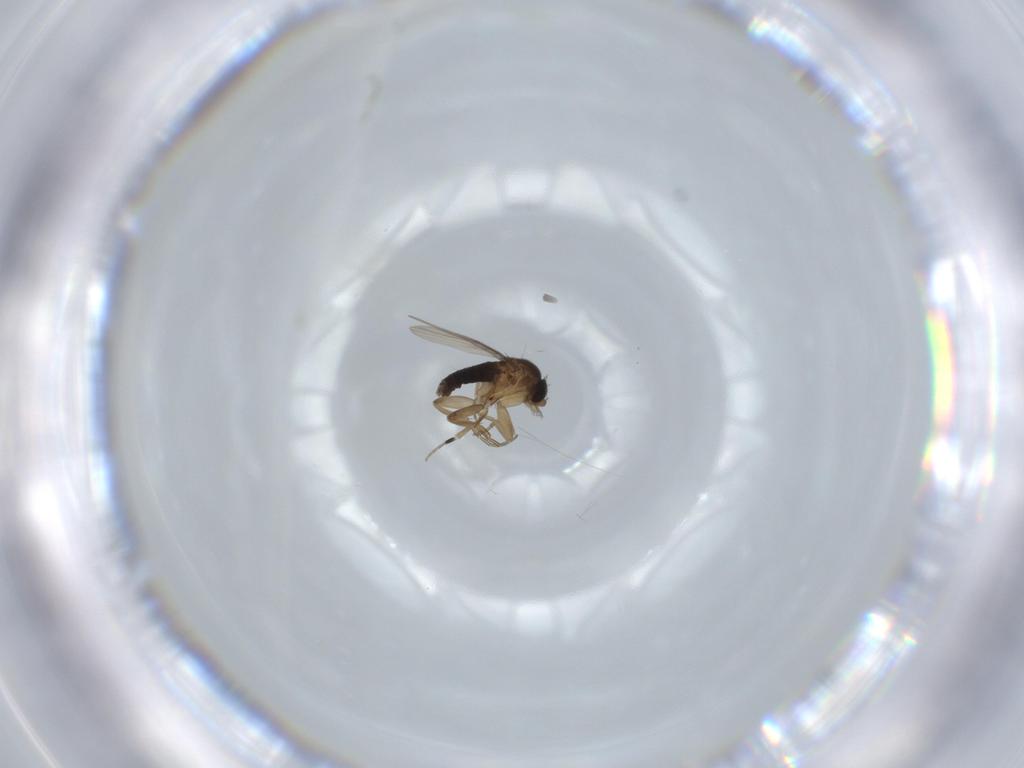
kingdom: Animalia
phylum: Arthropoda
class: Insecta
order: Diptera
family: Phoridae
